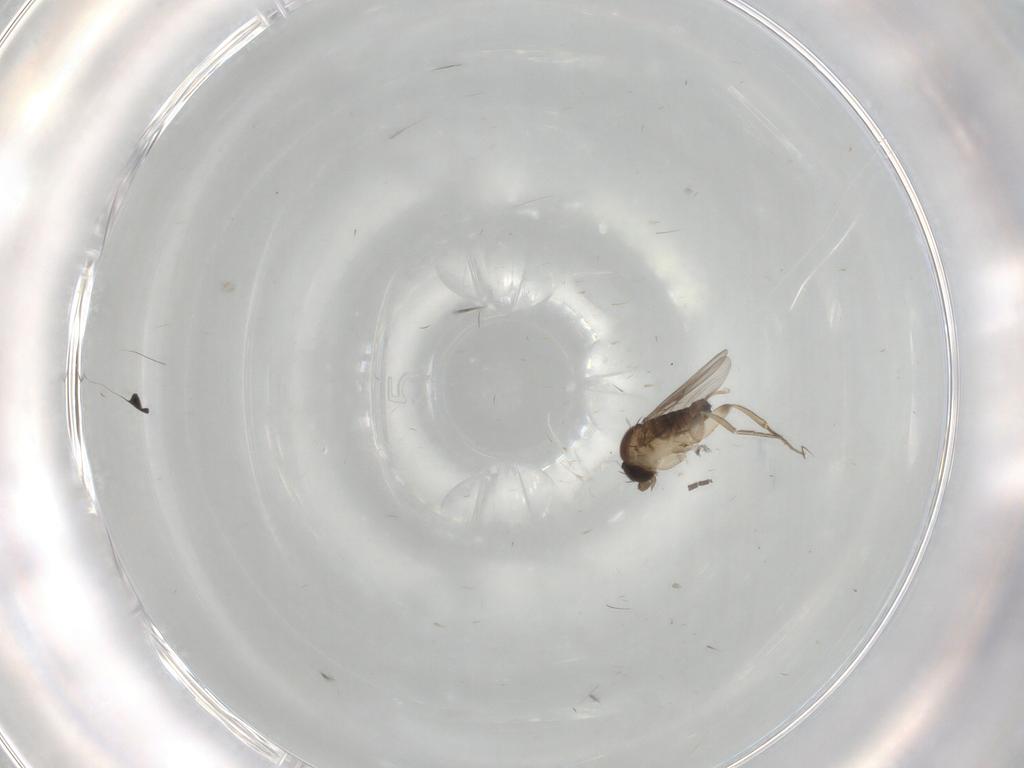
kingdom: Animalia
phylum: Arthropoda
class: Insecta
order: Diptera
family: Phoridae
